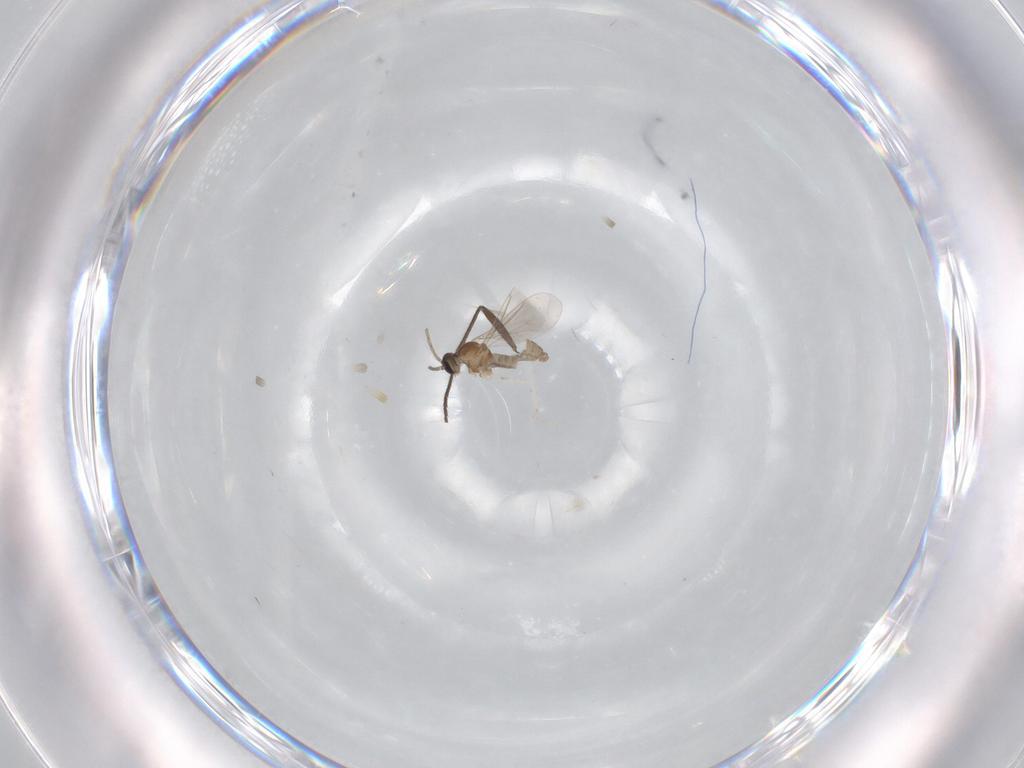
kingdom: Animalia
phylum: Arthropoda
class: Insecta
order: Diptera
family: Cecidomyiidae
